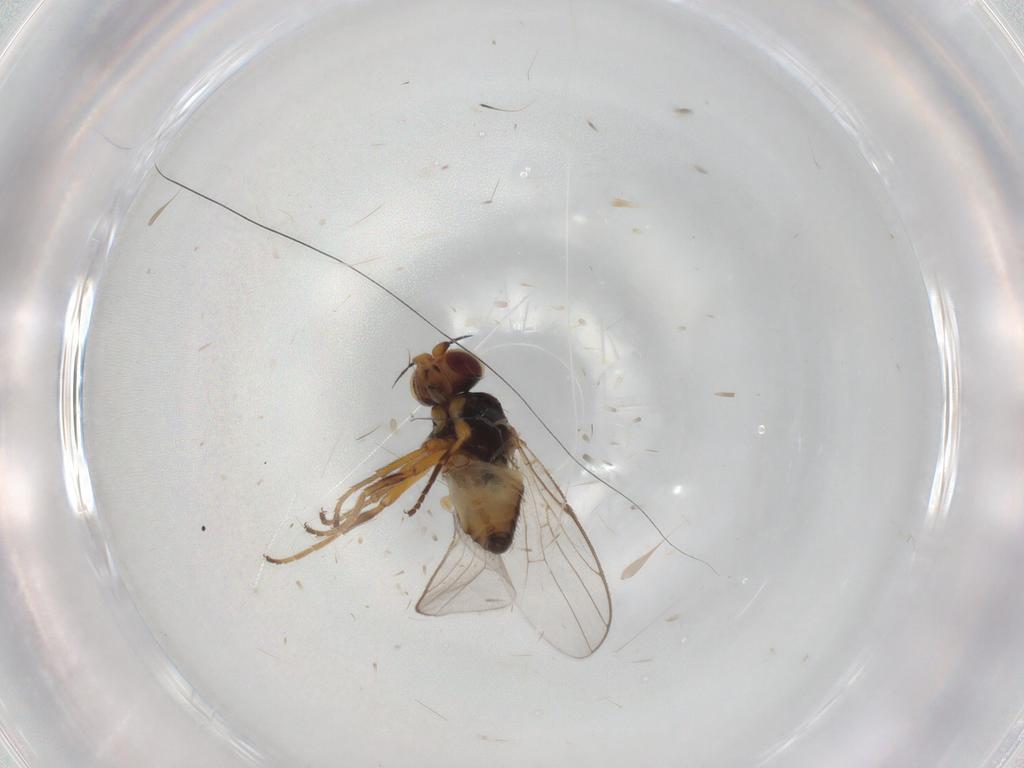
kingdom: Animalia
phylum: Arthropoda
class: Insecta
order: Diptera
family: Chloropidae
